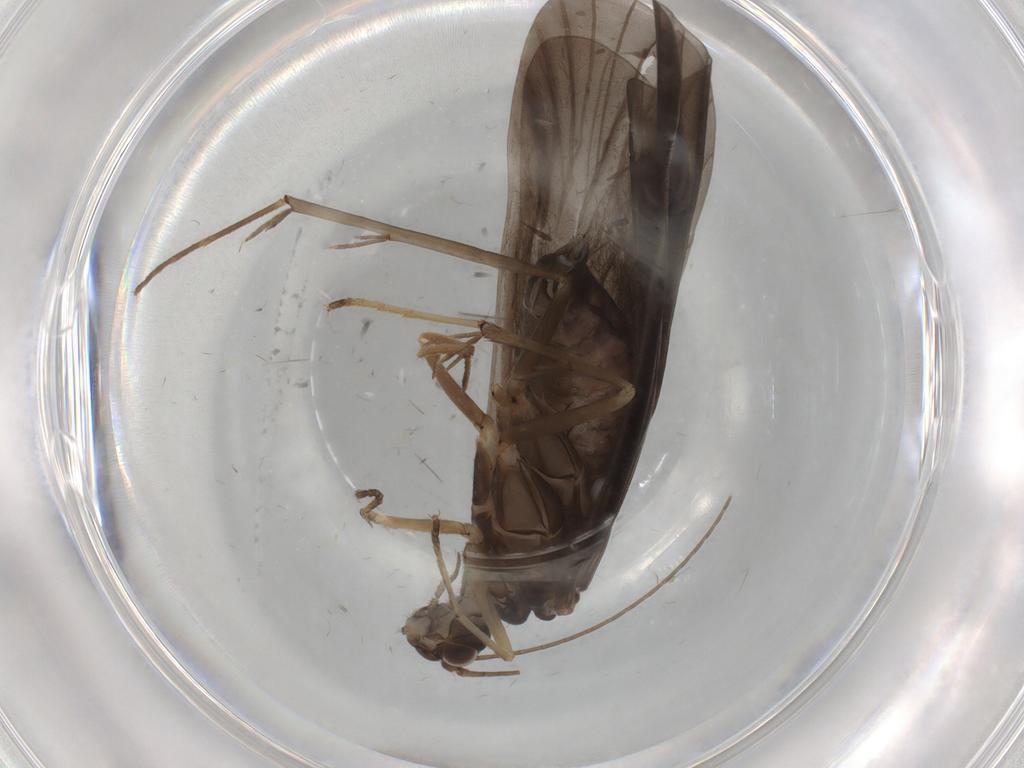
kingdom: Animalia
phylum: Arthropoda
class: Insecta
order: Trichoptera
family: Hydropsychidae
